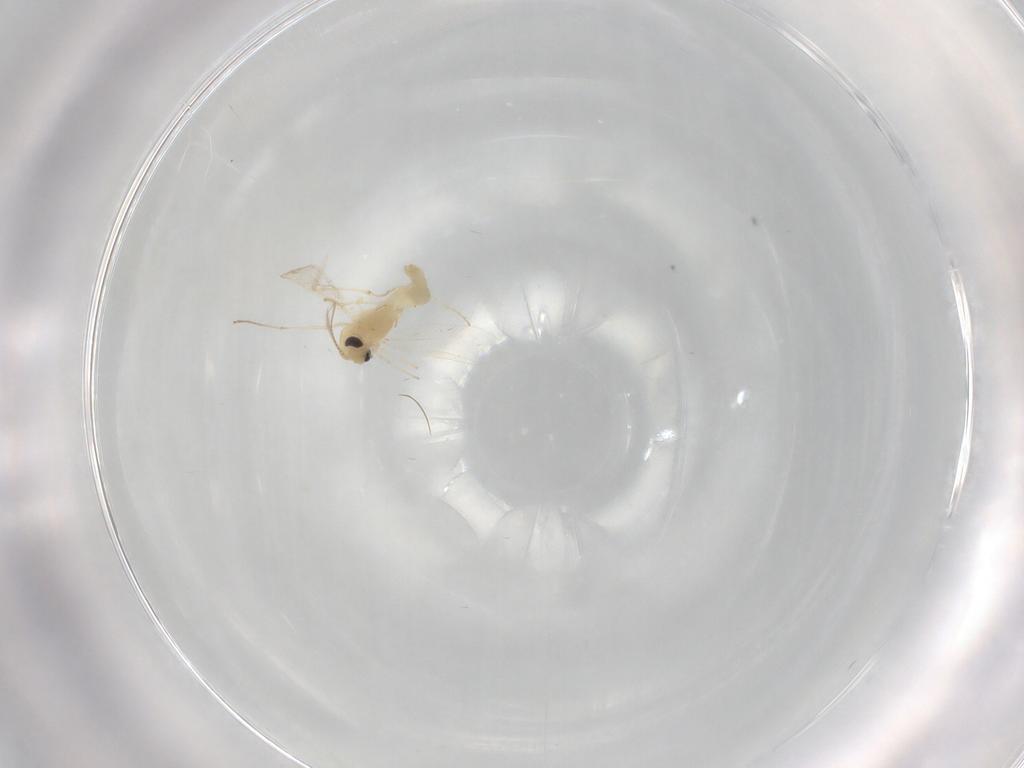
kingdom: Animalia
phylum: Arthropoda
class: Insecta
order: Diptera
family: Chironomidae
